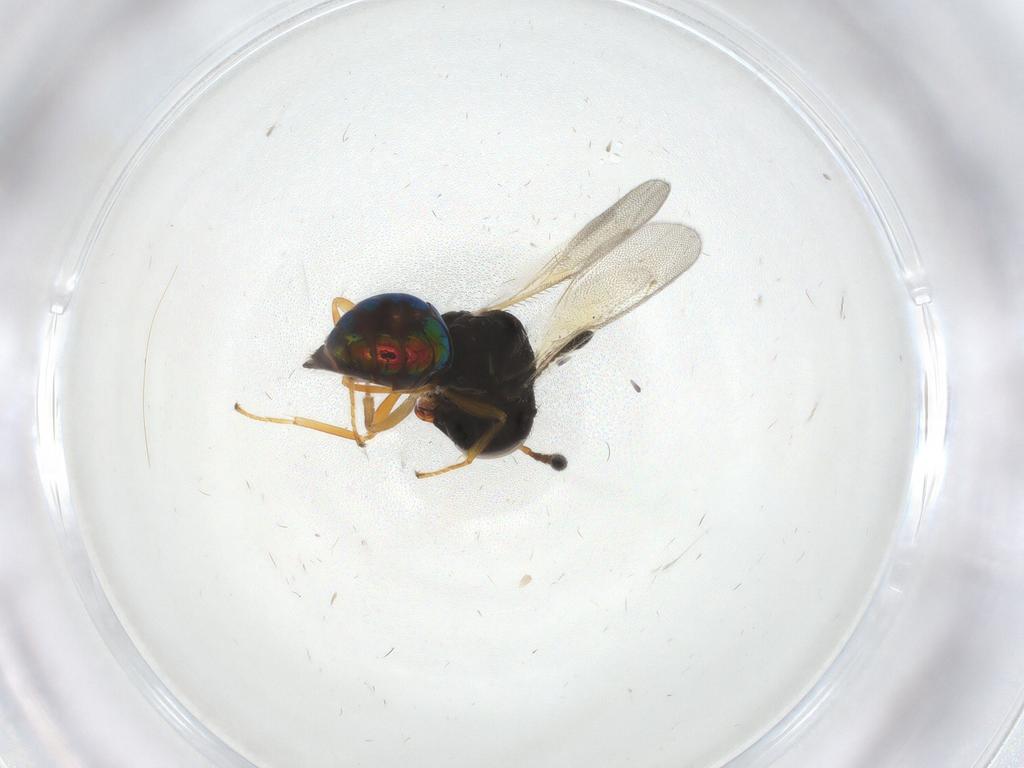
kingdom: Animalia
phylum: Arthropoda
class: Insecta
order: Hymenoptera
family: Pteromalidae
